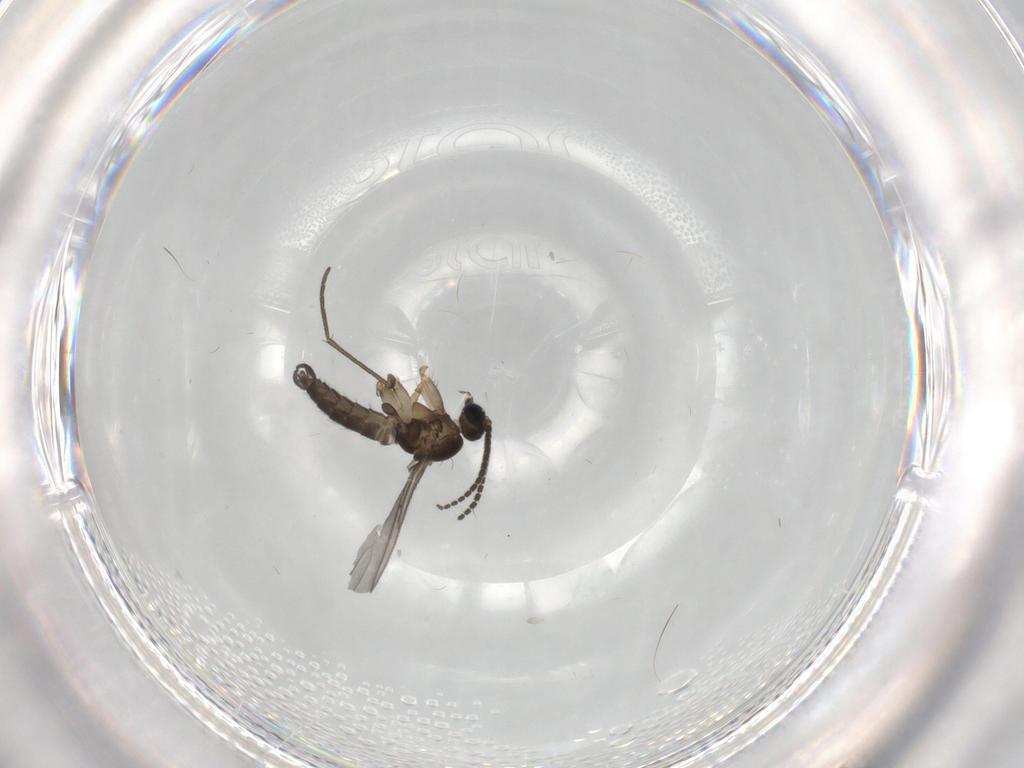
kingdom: Animalia
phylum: Arthropoda
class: Insecta
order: Diptera
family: Sciaridae
